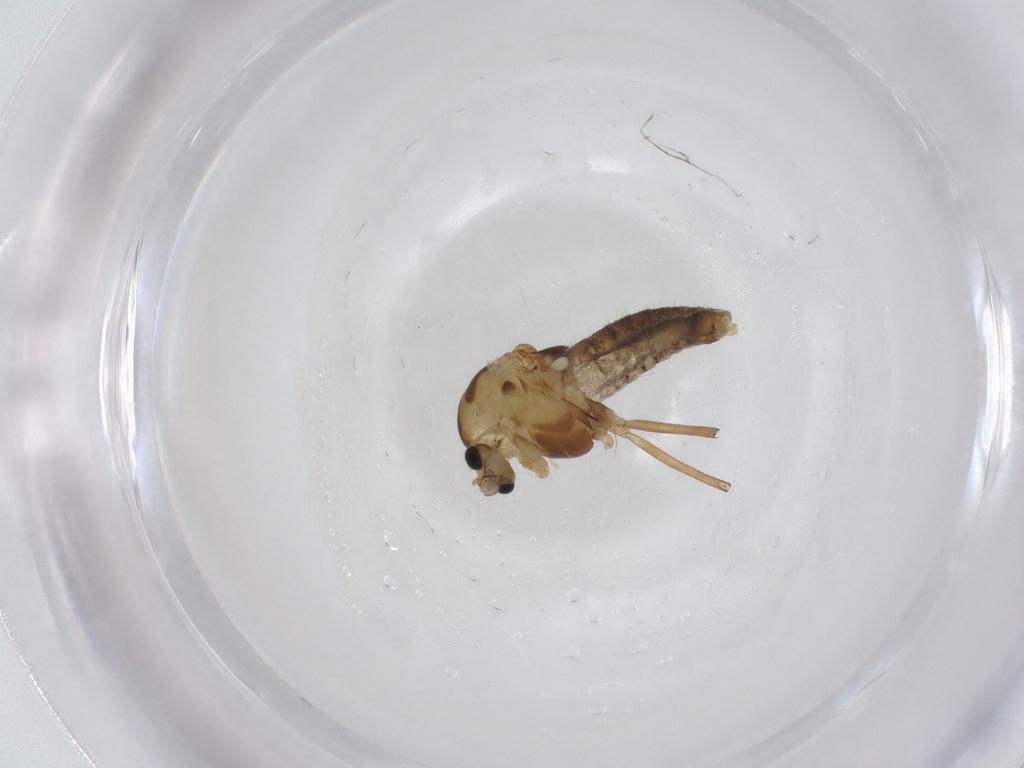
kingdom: Animalia
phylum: Arthropoda
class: Insecta
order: Diptera
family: Chironomidae
